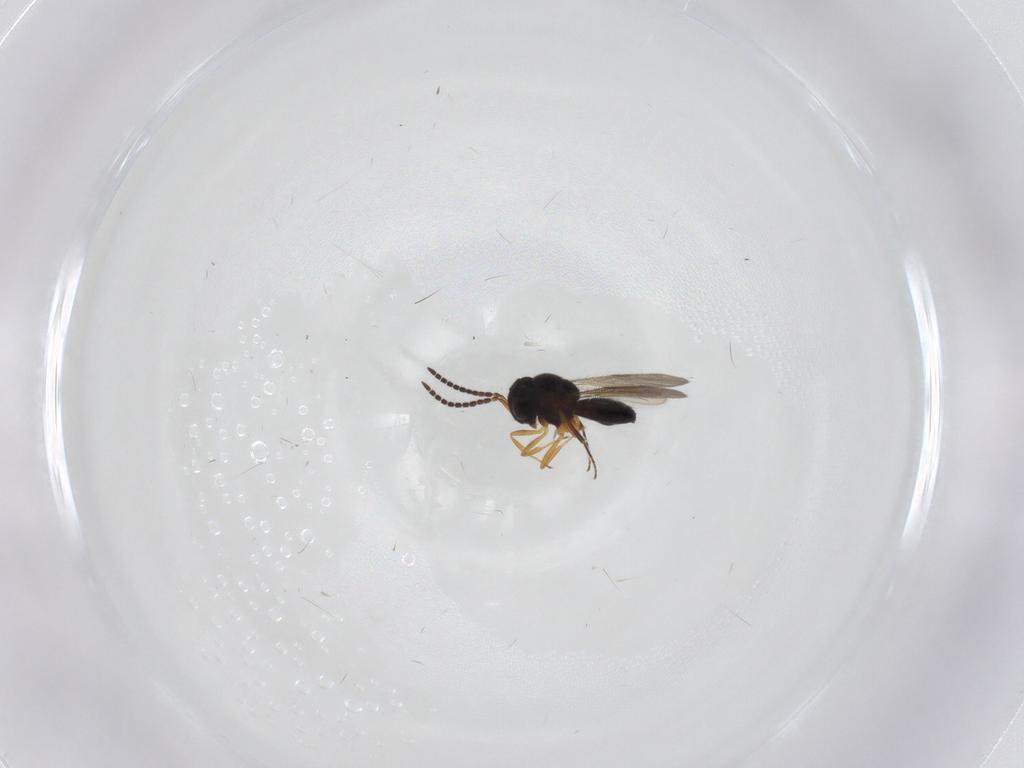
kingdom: Animalia
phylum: Arthropoda
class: Insecta
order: Hymenoptera
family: Scelionidae
